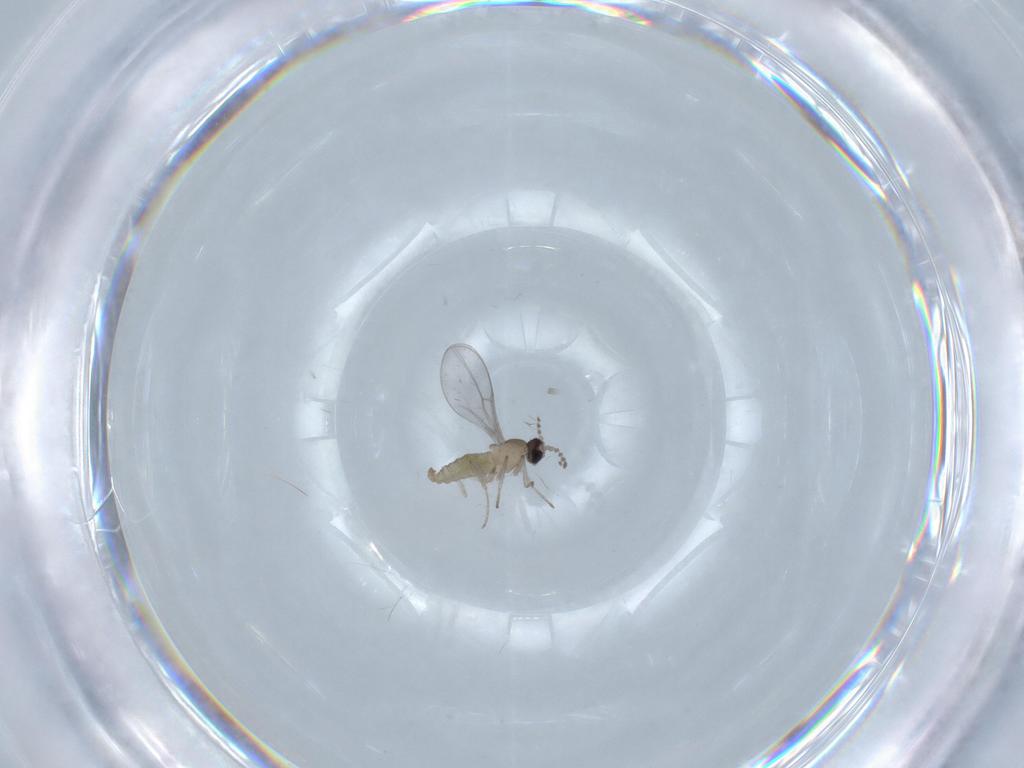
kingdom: Animalia
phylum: Arthropoda
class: Insecta
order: Diptera
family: Cecidomyiidae
